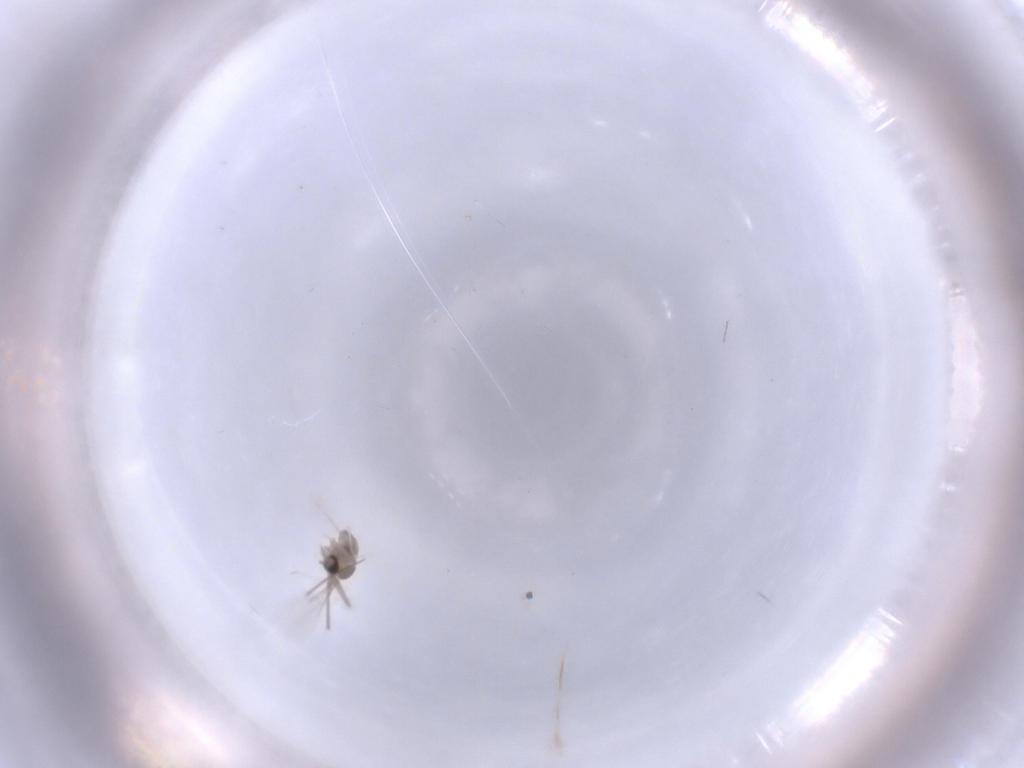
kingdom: Animalia
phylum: Arthropoda
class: Insecta
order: Diptera
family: Cecidomyiidae
